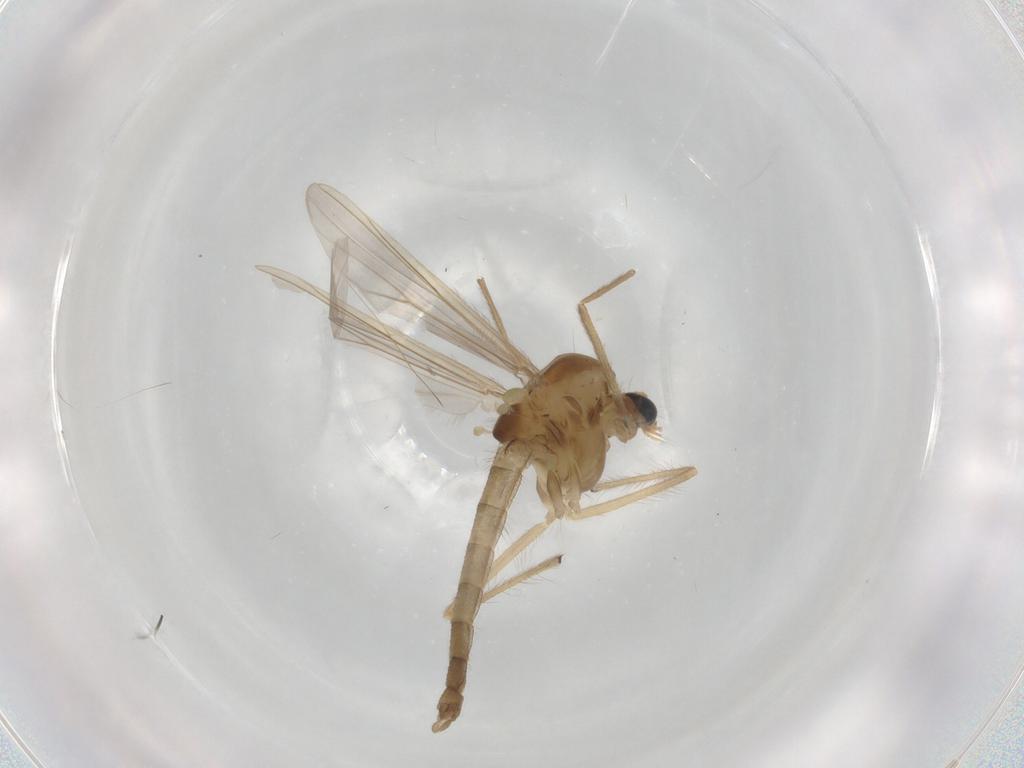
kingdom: Animalia
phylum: Arthropoda
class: Insecta
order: Diptera
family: Chironomidae
